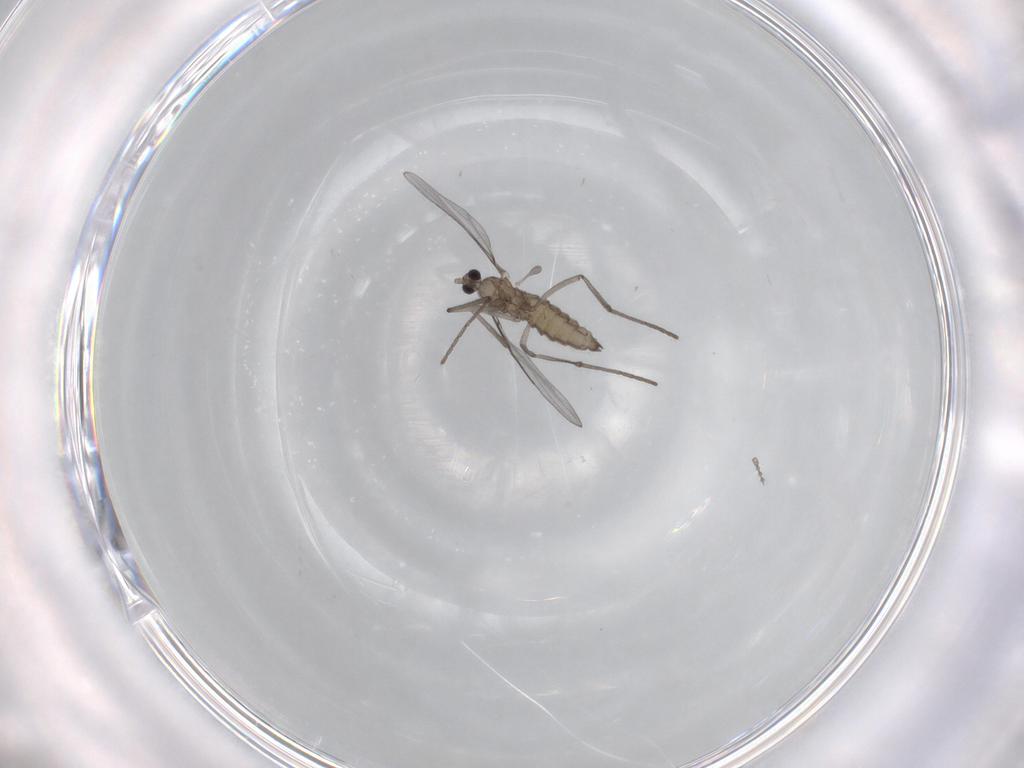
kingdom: Animalia
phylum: Arthropoda
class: Insecta
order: Diptera
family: Cecidomyiidae
